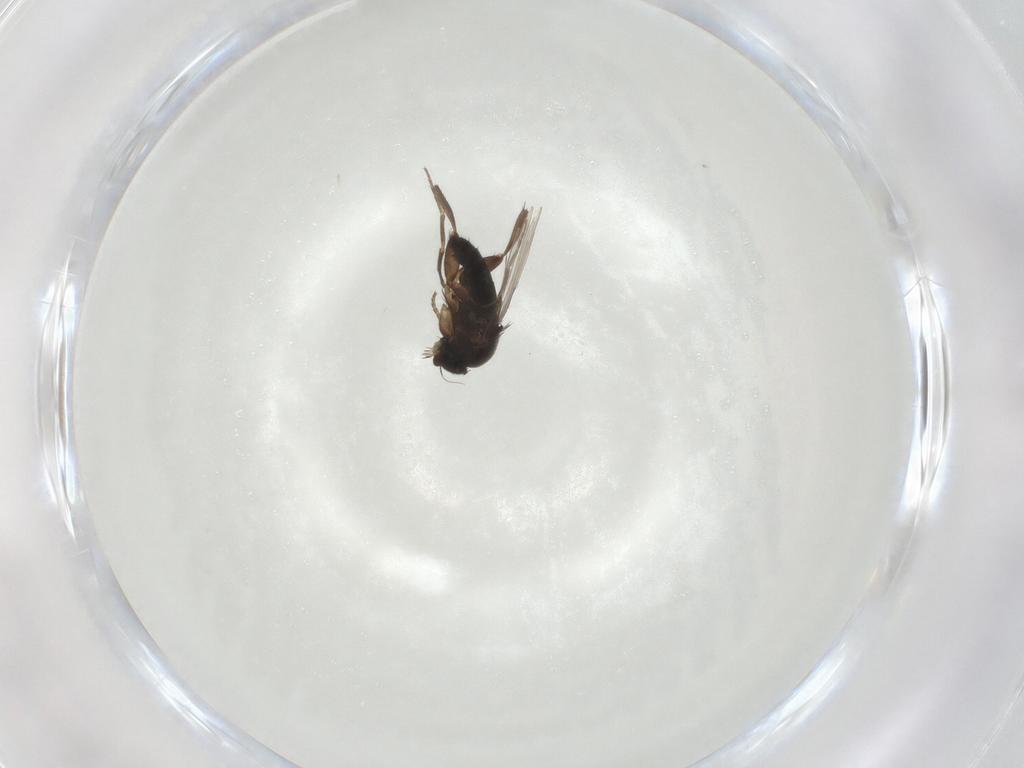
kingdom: Animalia
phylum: Arthropoda
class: Insecta
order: Diptera
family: Phoridae
